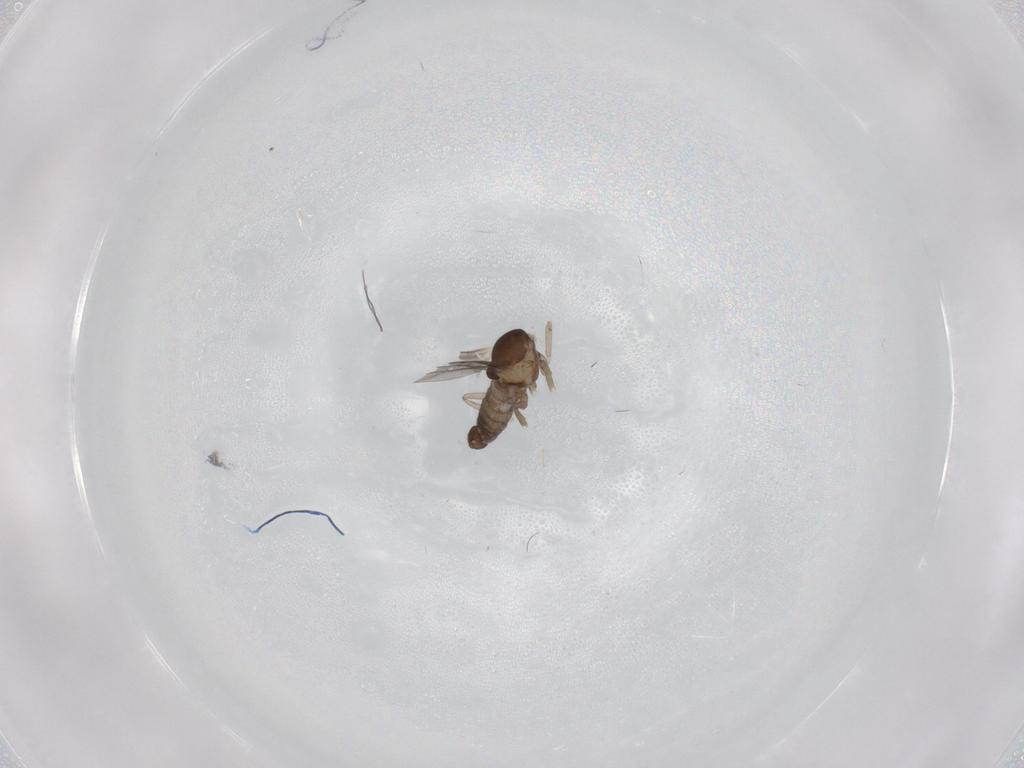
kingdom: Animalia
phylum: Arthropoda
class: Insecta
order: Diptera
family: Cecidomyiidae
